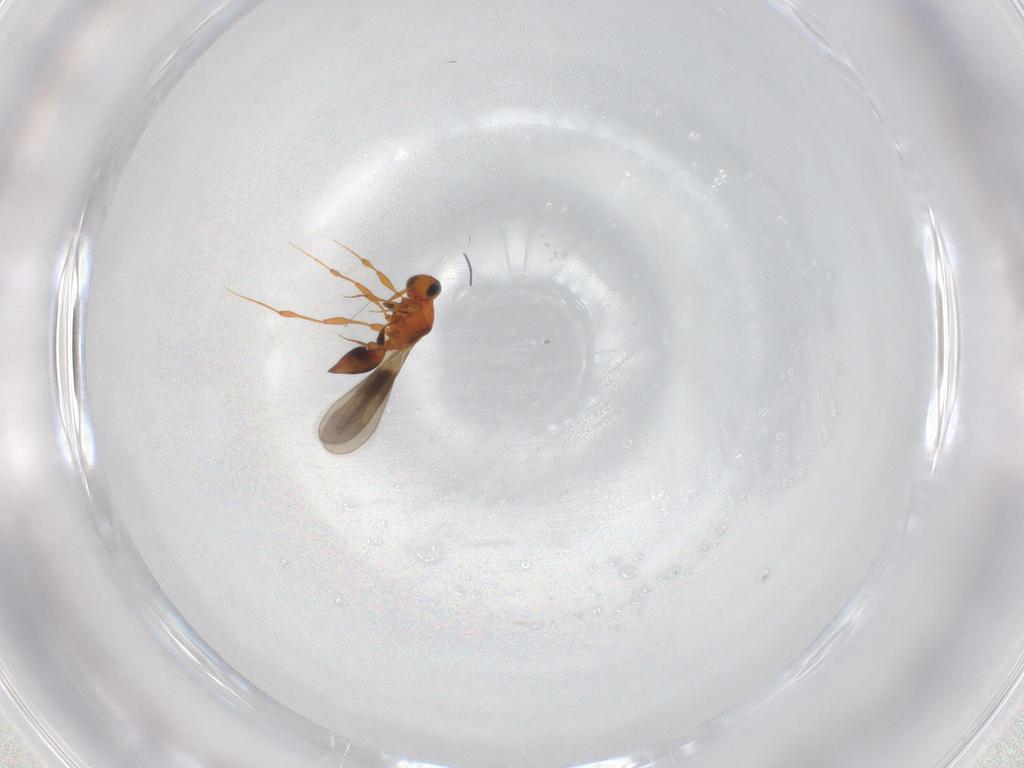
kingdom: Animalia
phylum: Arthropoda
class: Insecta
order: Hymenoptera
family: Platygastridae
